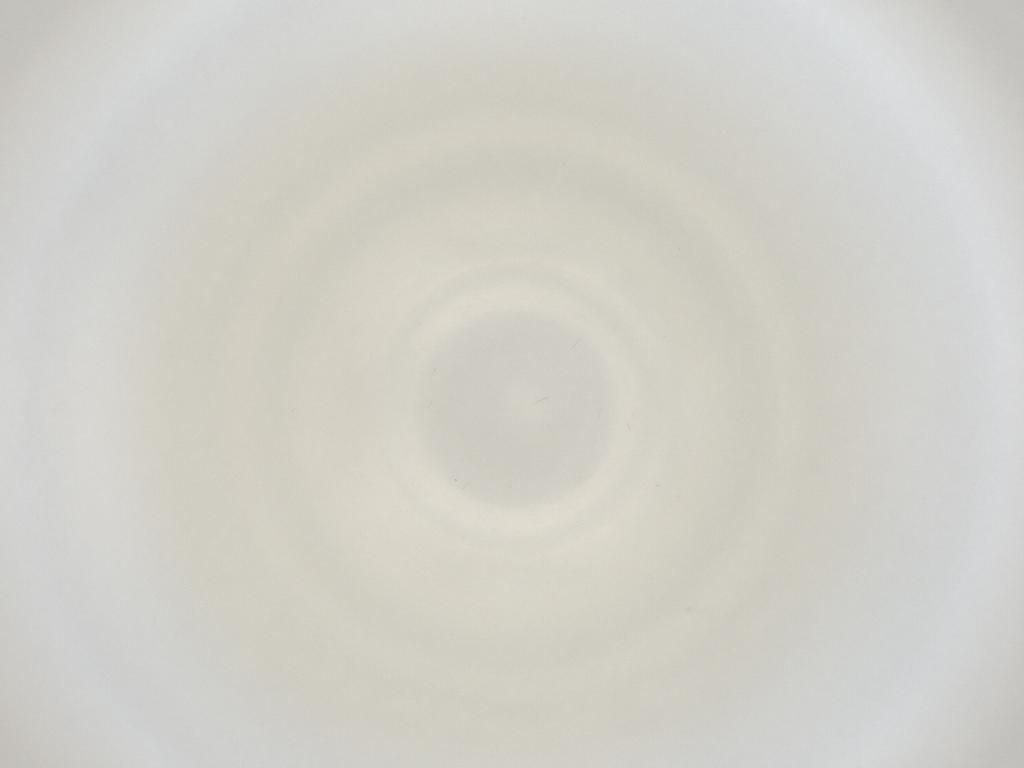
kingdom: Animalia
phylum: Arthropoda
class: Insecta
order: Diptera
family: Cecidomyiidae
